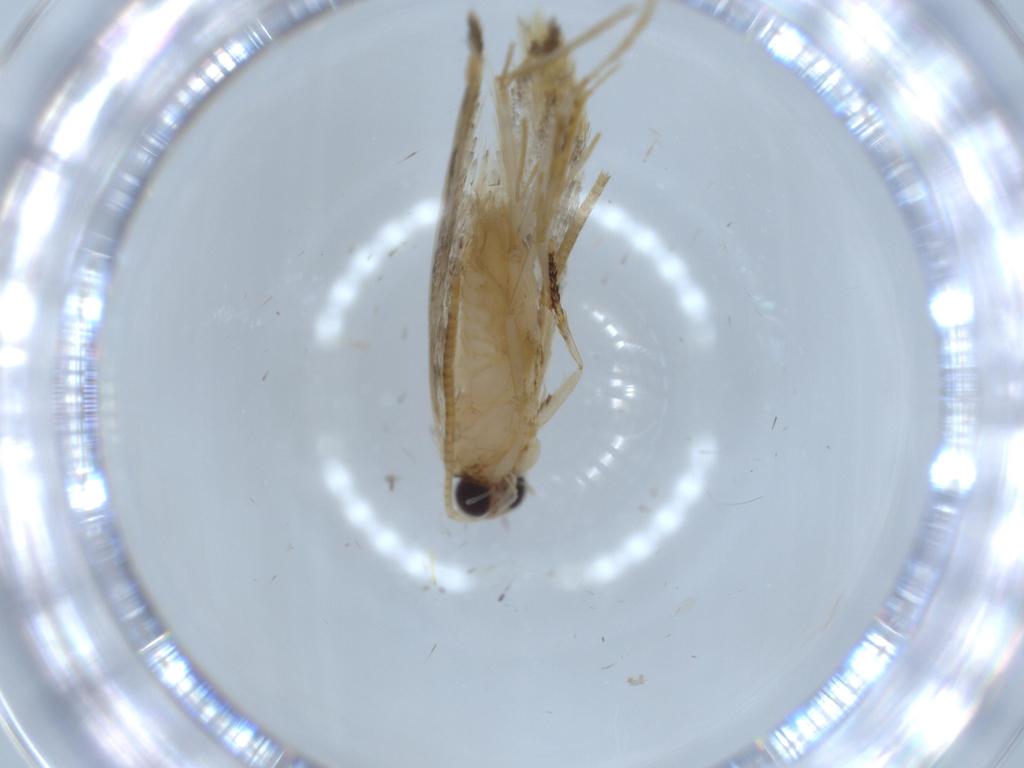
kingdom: Animalia
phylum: Arthropoda
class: Insecta
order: Lepidoptera
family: Tineidae
